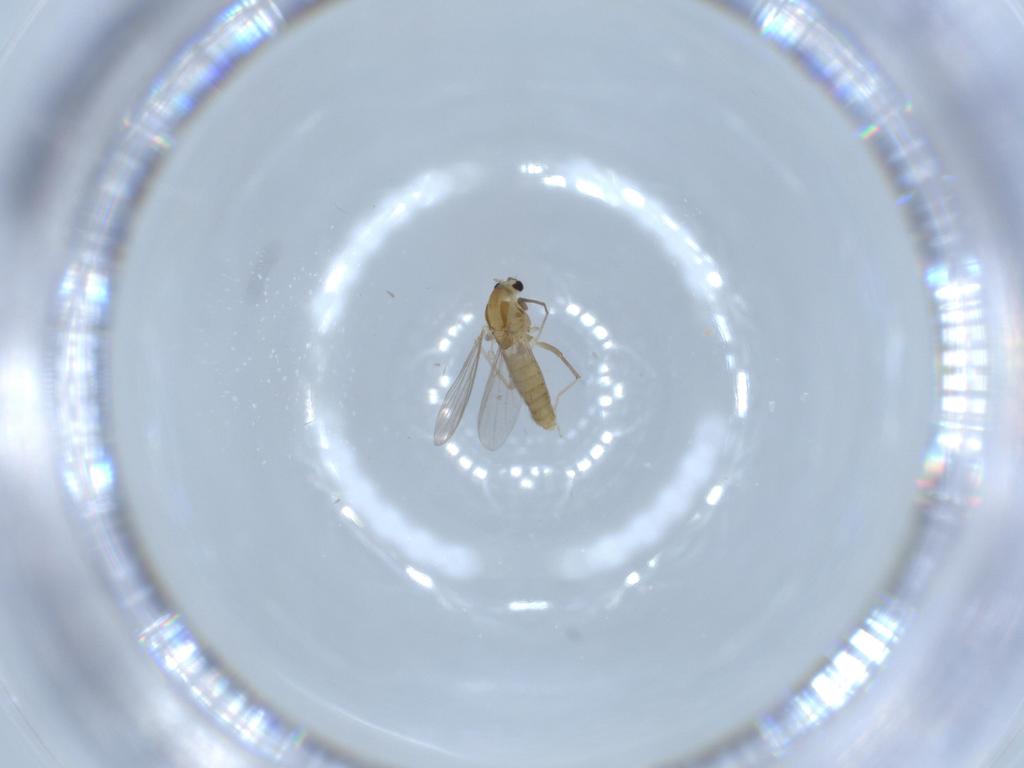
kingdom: Animalia
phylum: Arthropoda
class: Insecta
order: Diptera
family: Chironomidae
